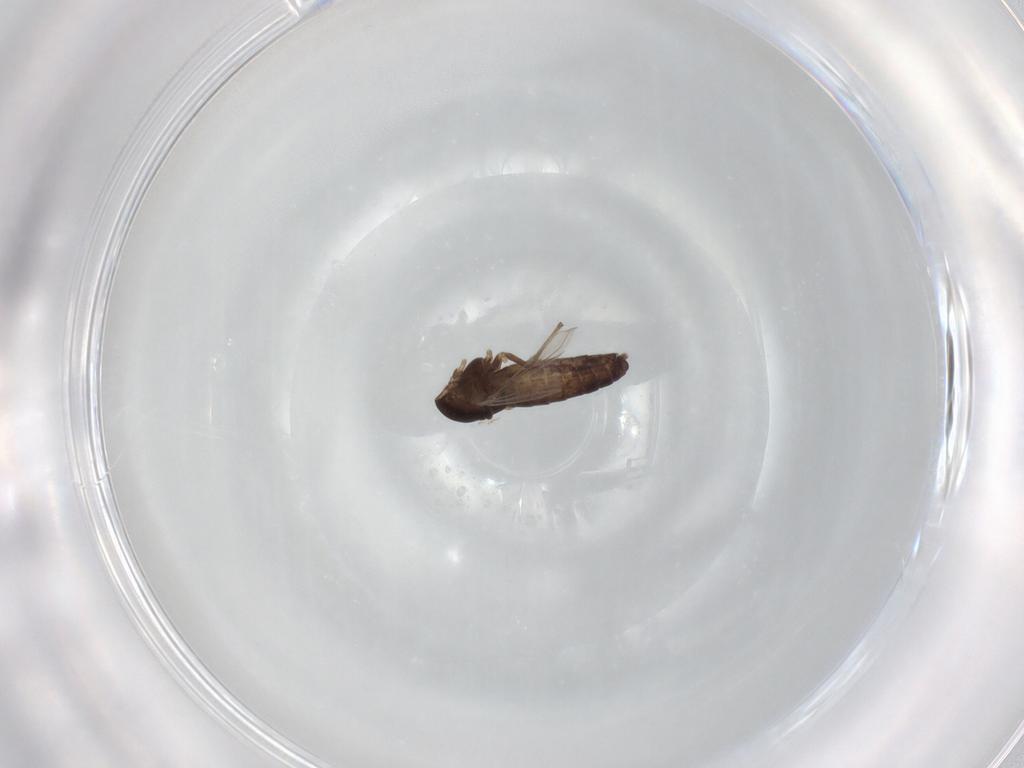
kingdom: Animalia
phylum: Arthropoda
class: Insecta
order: Diptera
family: Chironomidae
